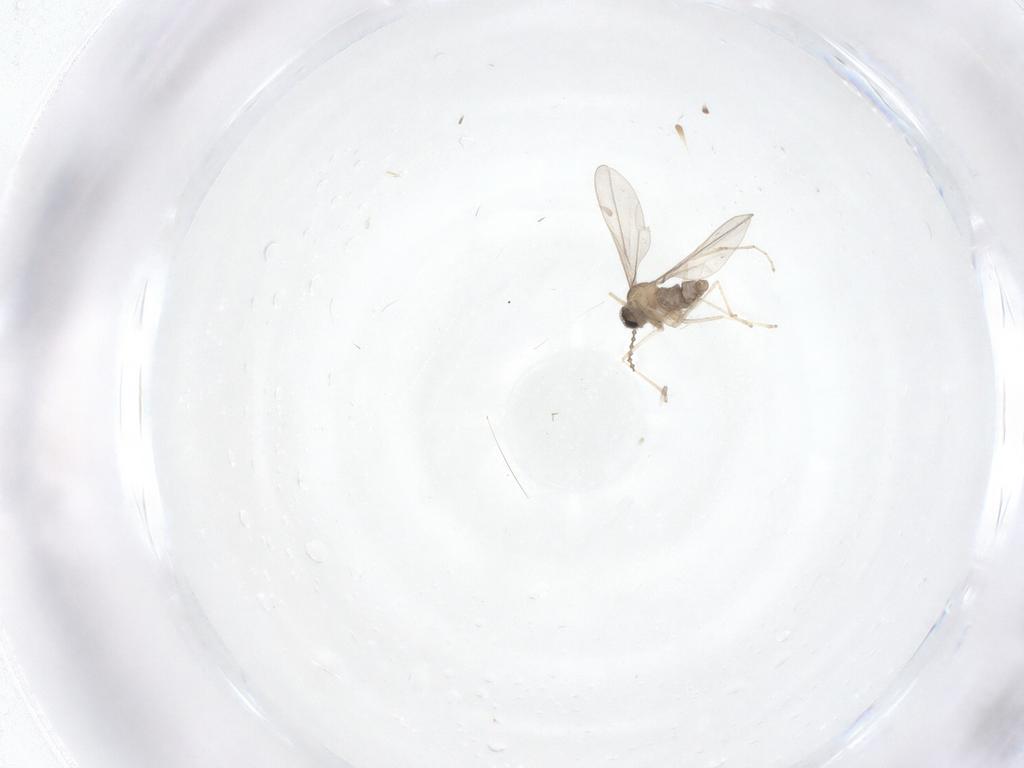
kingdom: Animalia
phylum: Arthropoda
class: Insecta
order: Diptera
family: Cecidomyiidae
